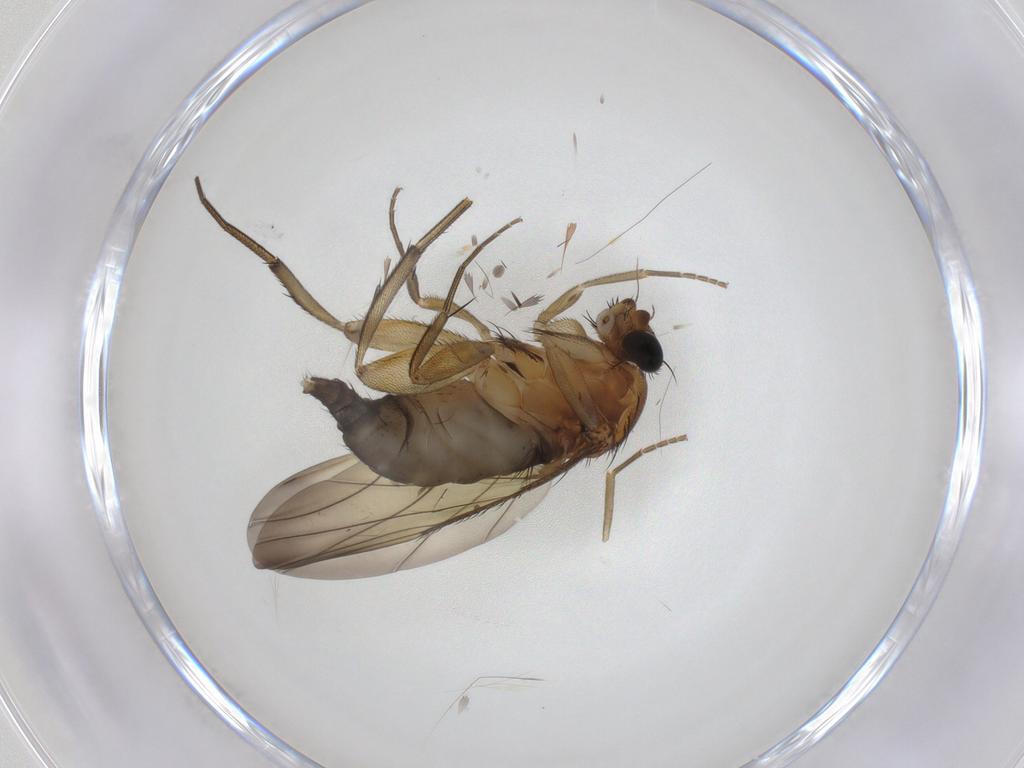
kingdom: Animalia
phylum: Arthropoda
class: Insecta
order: Diptera
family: Phoridae
